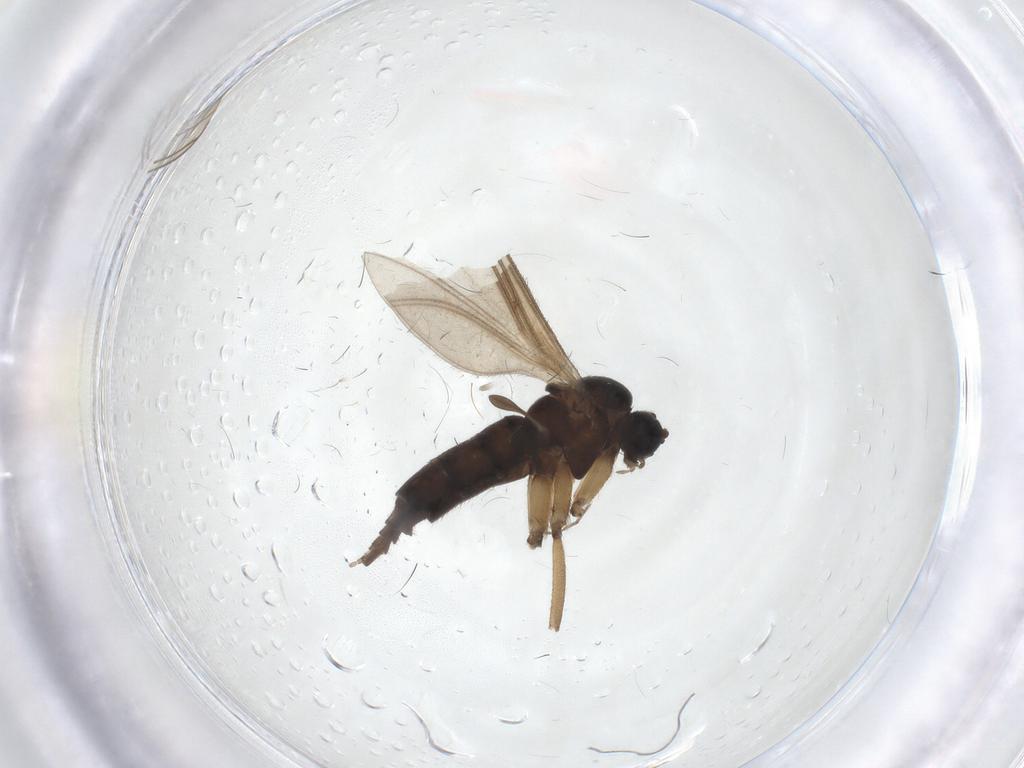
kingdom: Animalia
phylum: Arthropoda
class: Insecta
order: Diptera
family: Sciaridae
